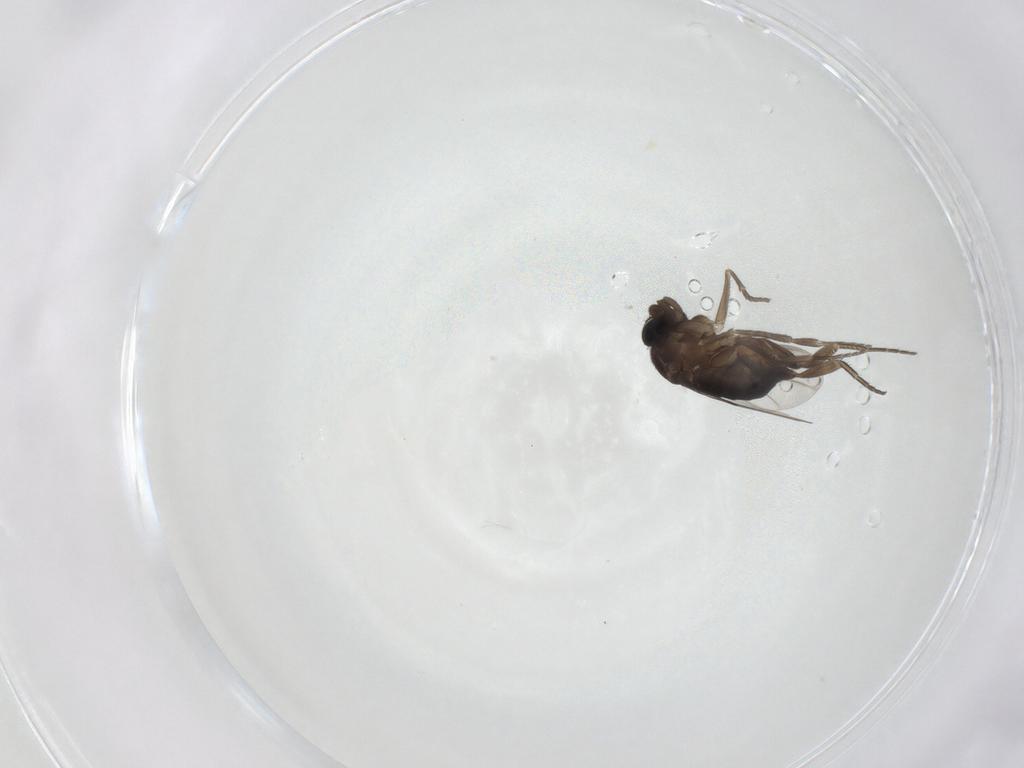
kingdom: Animalia
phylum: Arthropoda
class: Insecta
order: Diptera
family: Phoridae
